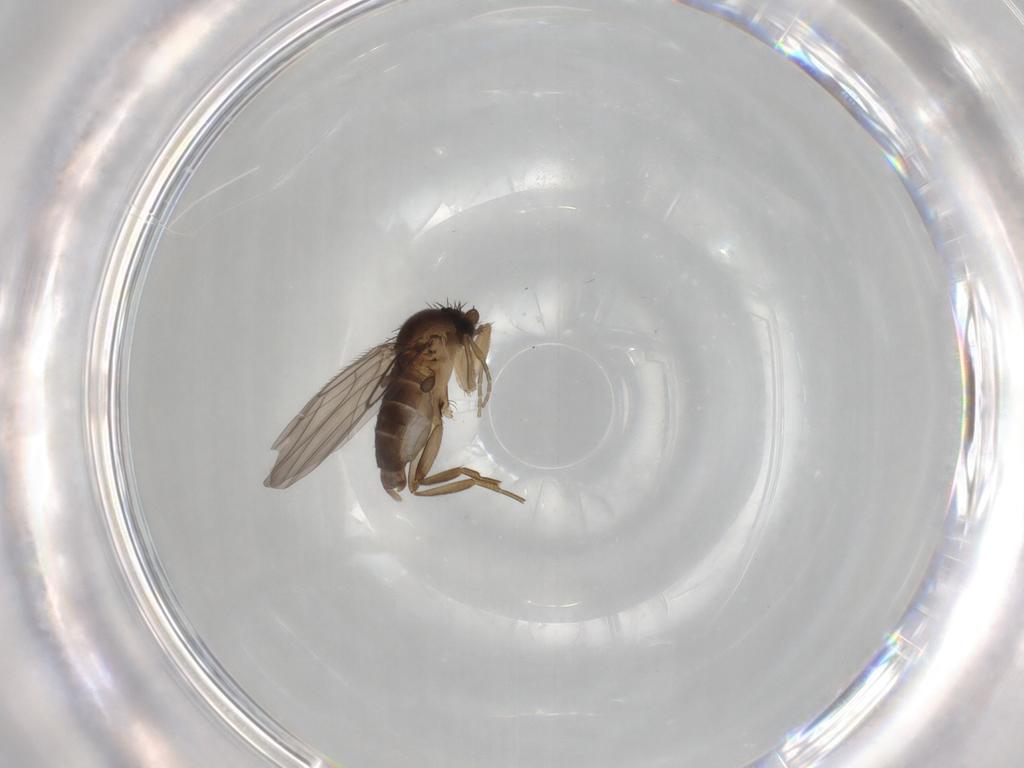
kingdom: Animalia
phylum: Arthropoda
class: Insecta
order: Diptera
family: Phoridae
